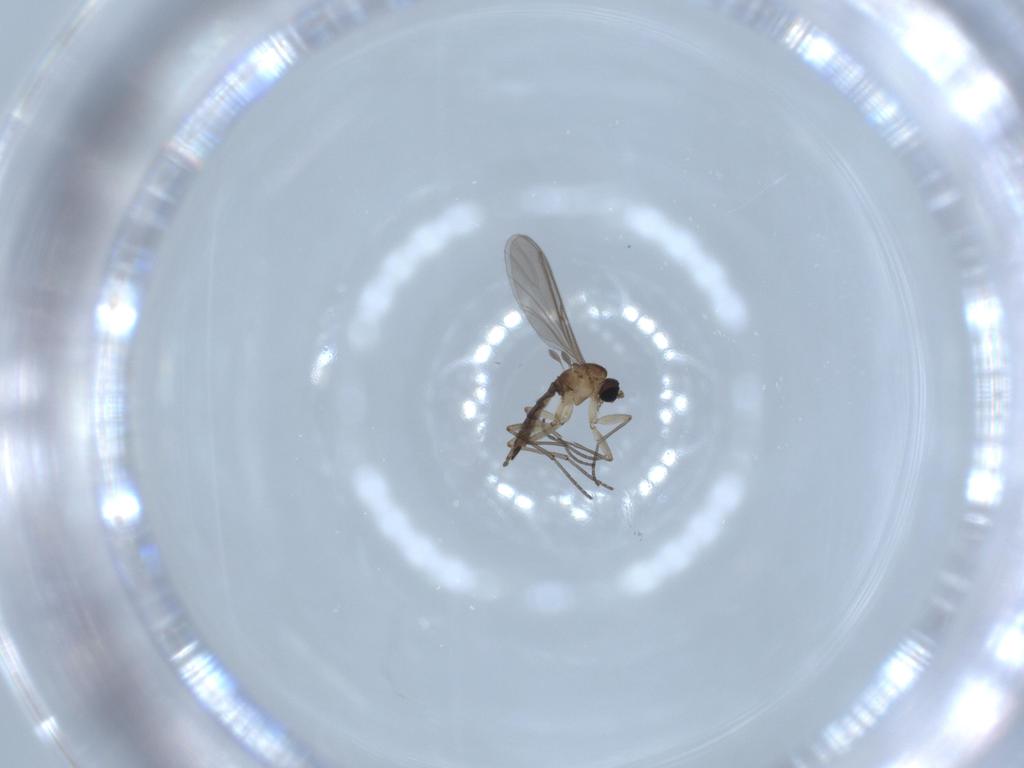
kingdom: Animalia
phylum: Arthropoda
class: Insecta
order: Diptera
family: Sciaridae
